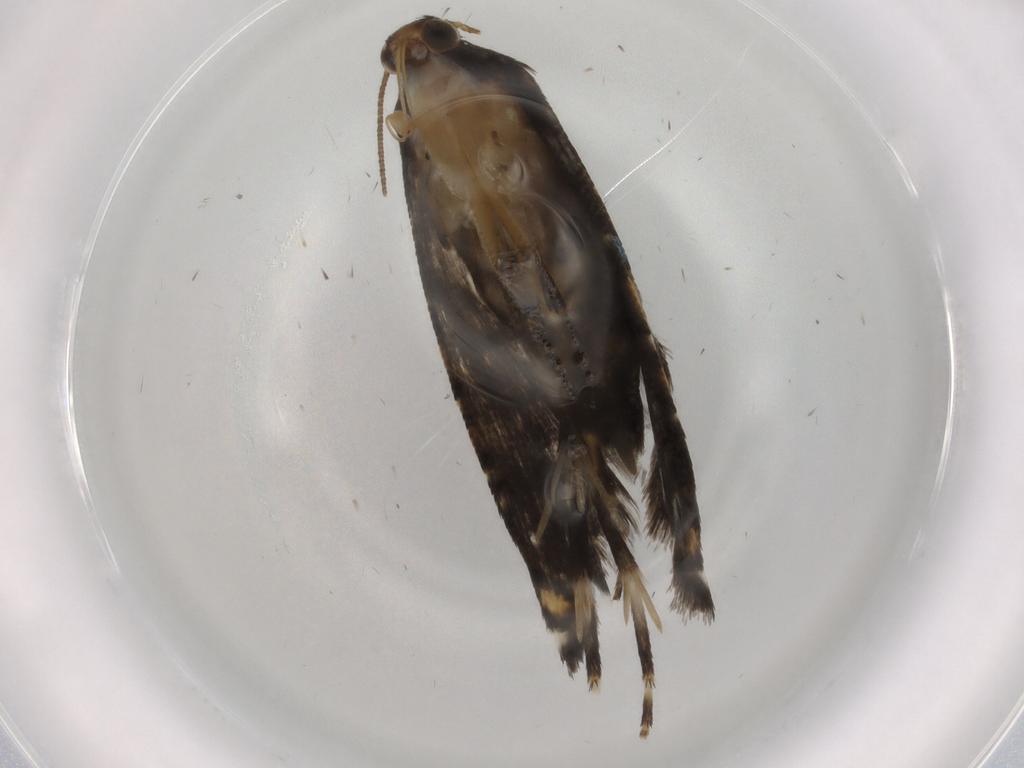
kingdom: Animalia
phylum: Arthropoda
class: Insecta
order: Lepidoptera
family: Glyphipterigidae
